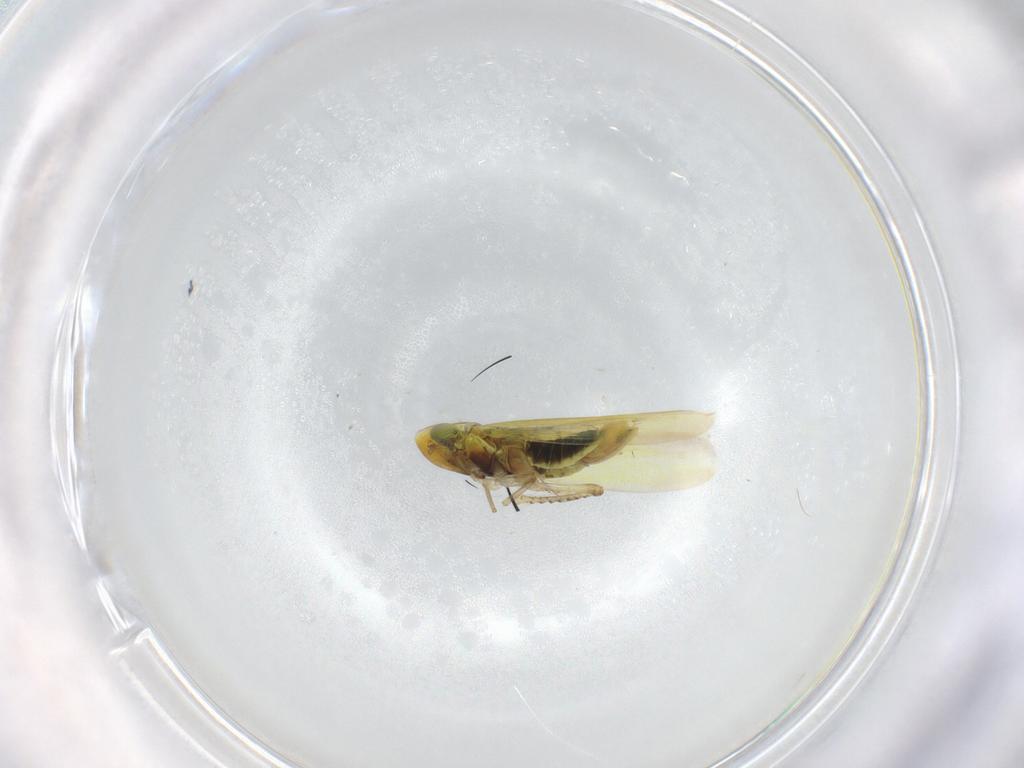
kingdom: Animalia
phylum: Arthropoda
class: Insecta
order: Hemiptera
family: Cicadellidae
